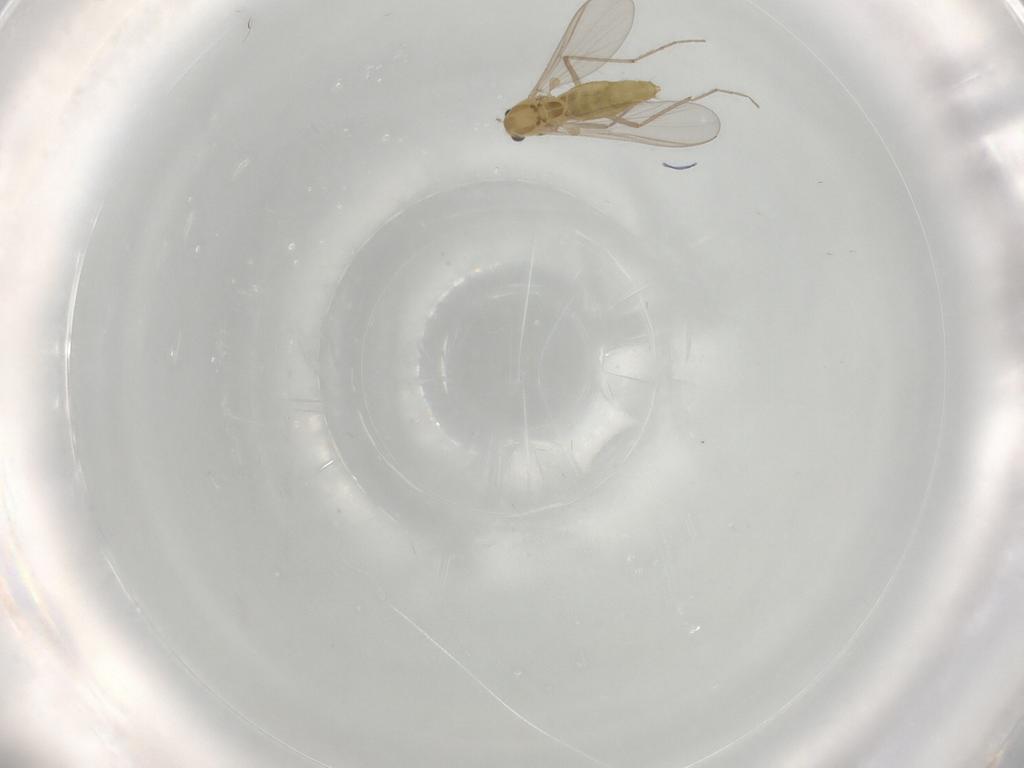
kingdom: Animalia
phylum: Arthropoda
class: Insecta
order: Diptera
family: Chironomidae
